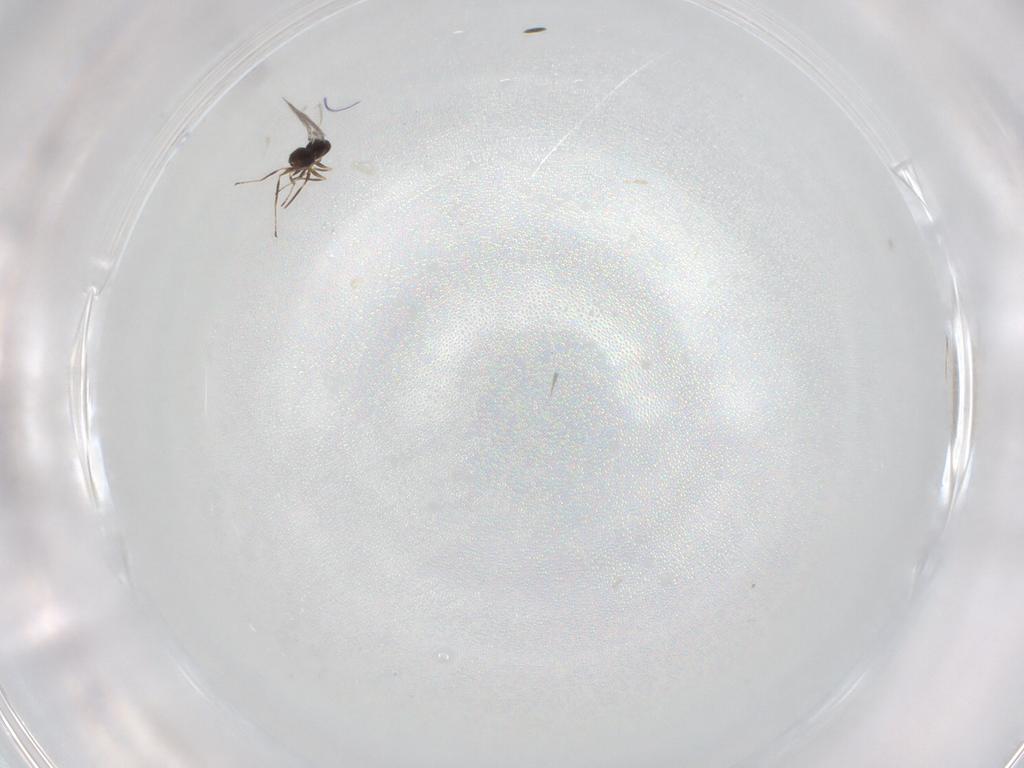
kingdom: Animalia
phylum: Arthropoda
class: Insecta
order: Hymenoptera
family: Mymaridae
